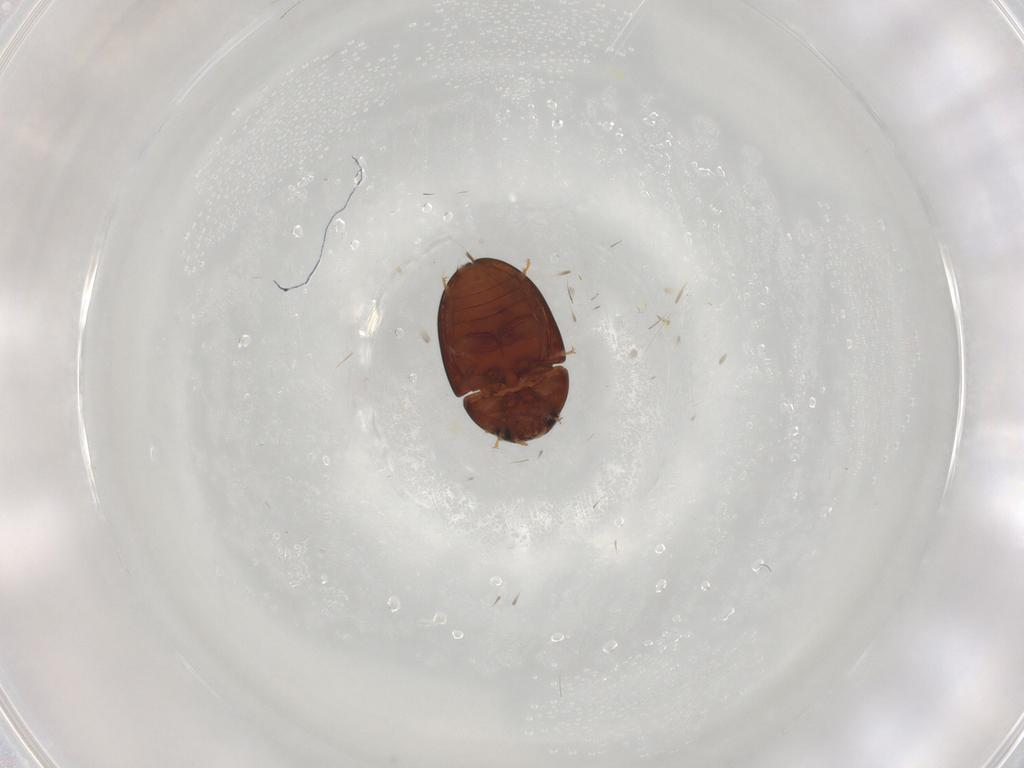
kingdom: Animalia
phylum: Arthropoda
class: Insecta
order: Coleoptera
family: Phalacridae
